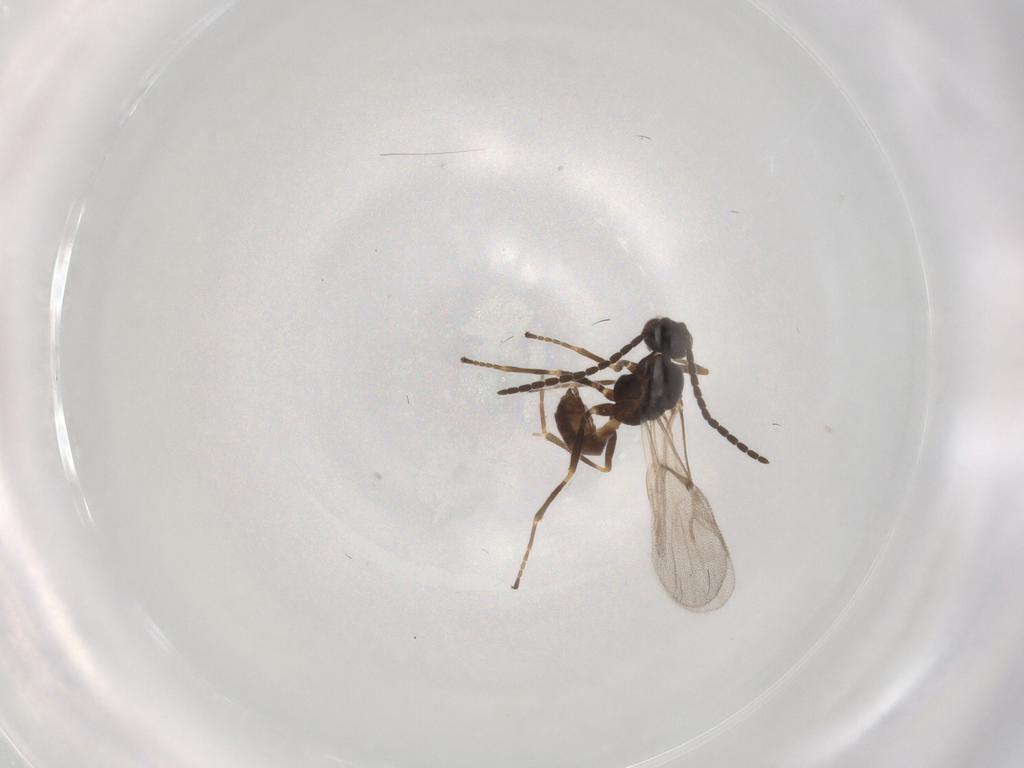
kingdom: Animalia
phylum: Arthropoda
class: Insecta
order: Hymenoptera
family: Braconidae
